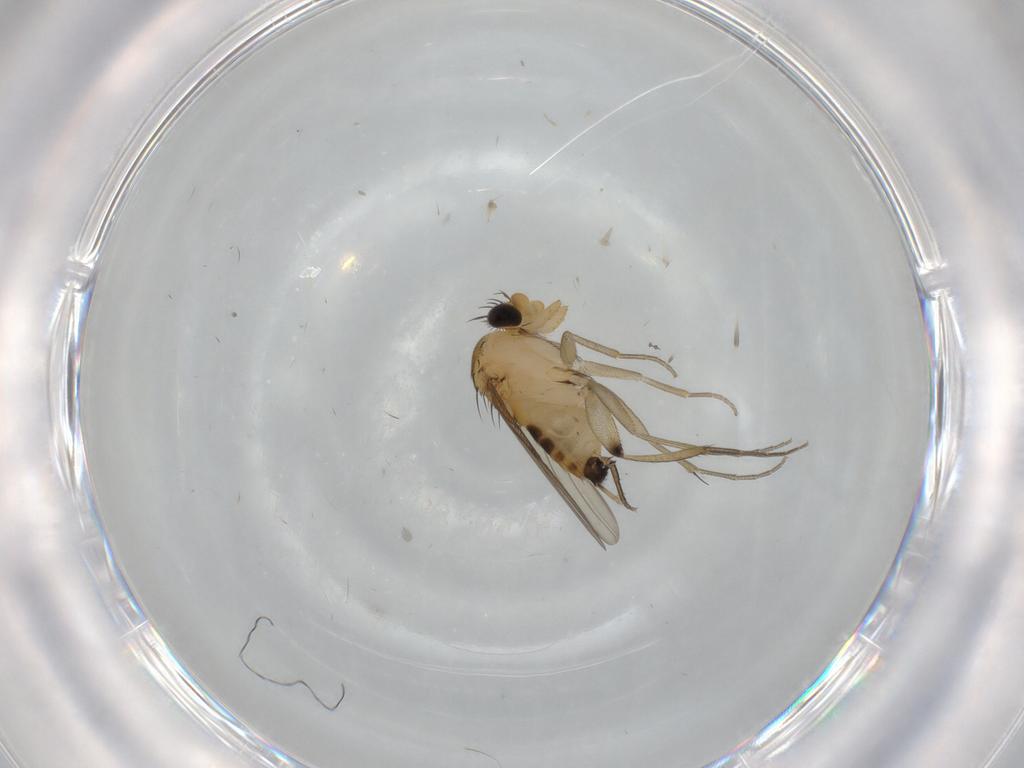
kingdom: Animalia
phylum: Arthropoda
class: Insecta
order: Diptera
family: Phoridae
